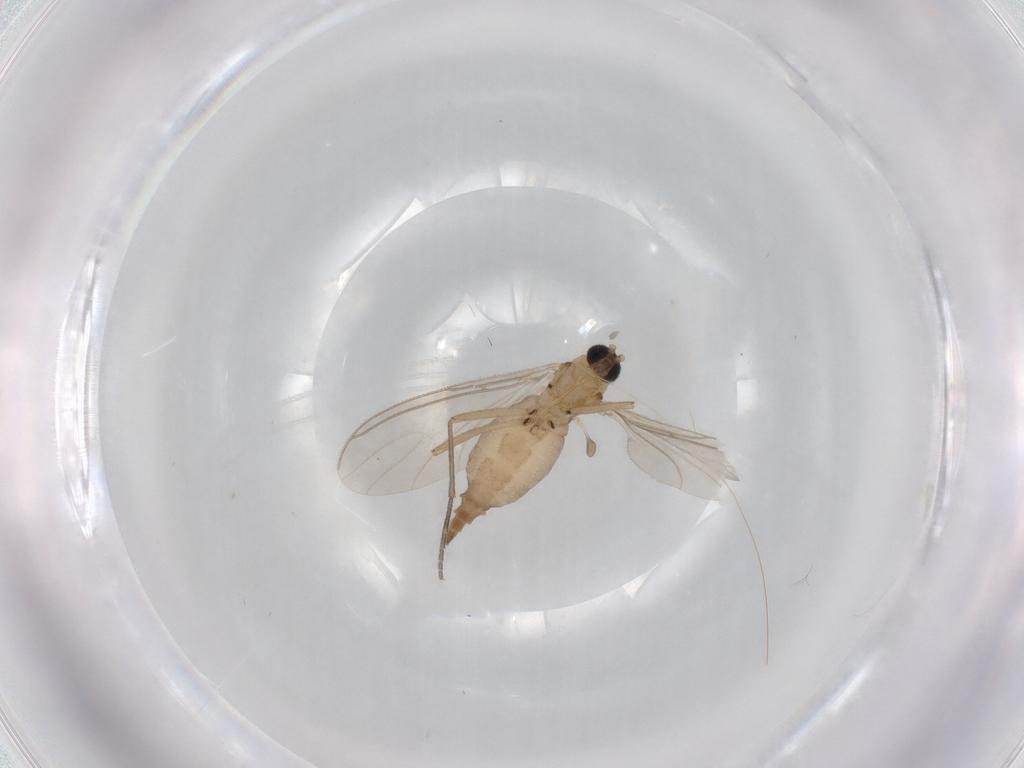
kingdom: Animalia
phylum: Arthropoda
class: Insecta
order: Diptera
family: Sciaridae
